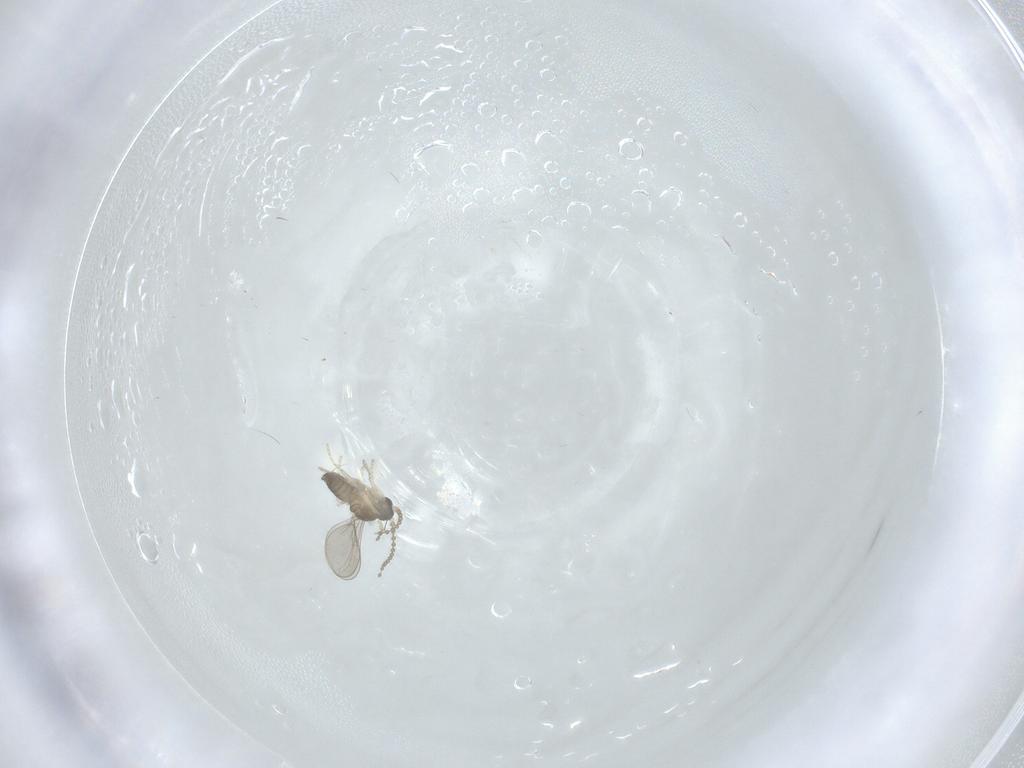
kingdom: Animalia
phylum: Arthropoda
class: Insecta
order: Diptera
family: Cecidomyiidae
